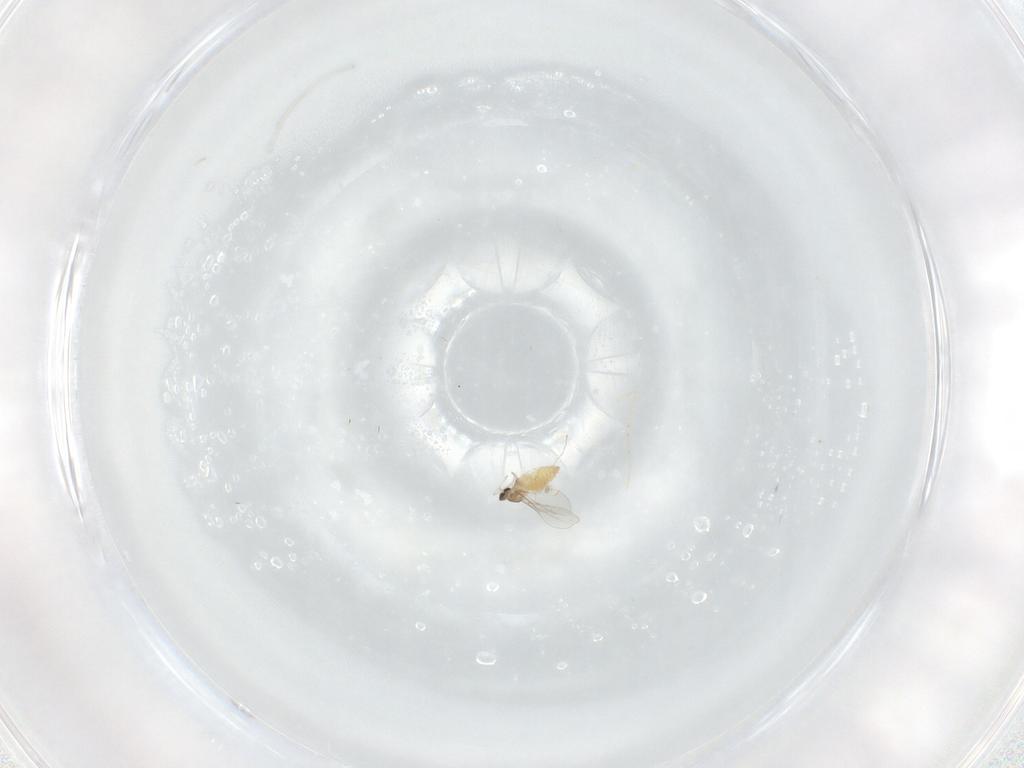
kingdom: Animalia
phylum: Arthropoda
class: Insecta
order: Diptera
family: Cecidomyiidae
